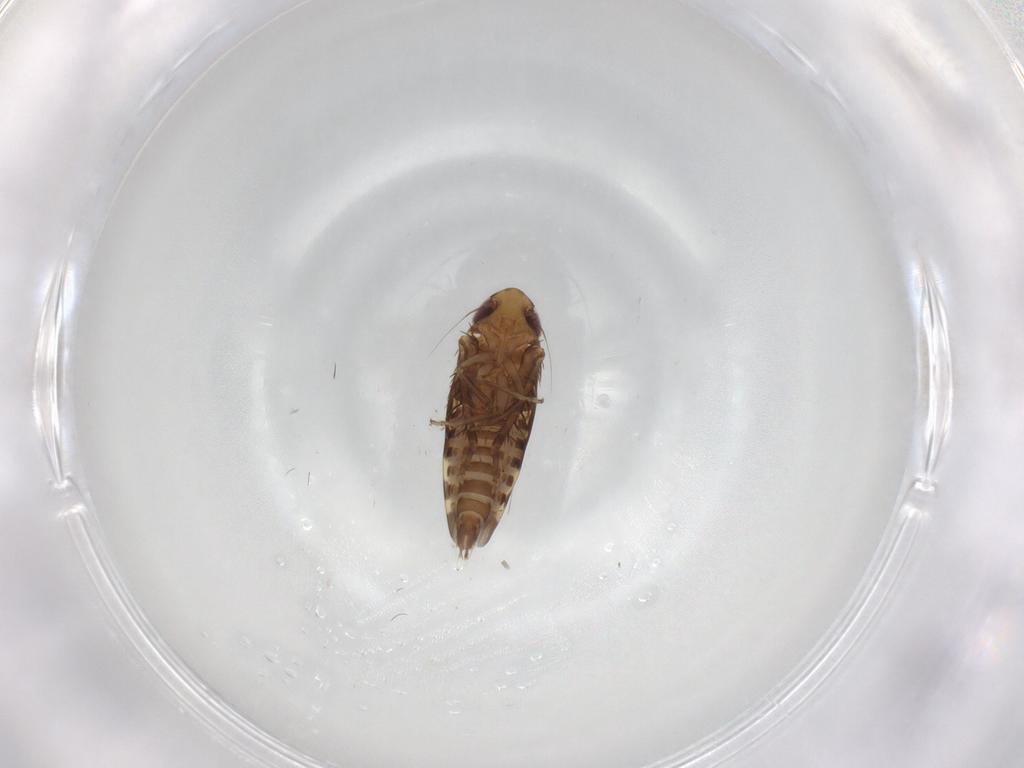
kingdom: Animalia
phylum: Arthropoda
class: Insecta
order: Hemiptera
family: Cicadellidae
